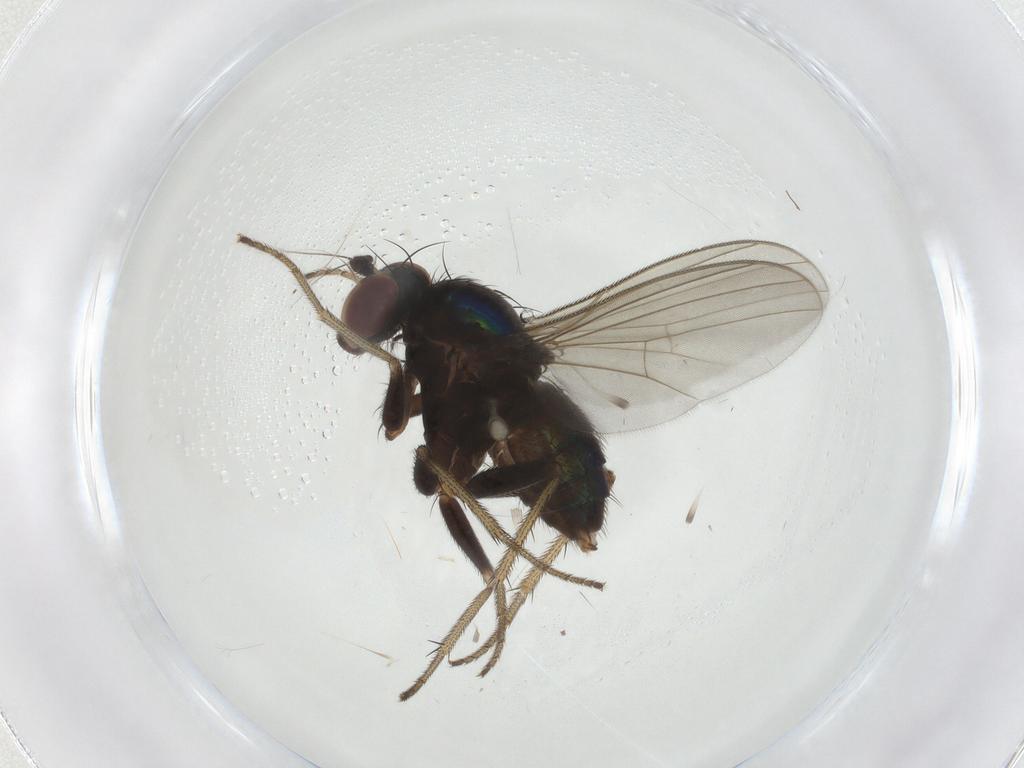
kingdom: Animalia
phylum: Arthropoda
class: Insecta
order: Diptera
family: Dolichopodidae
